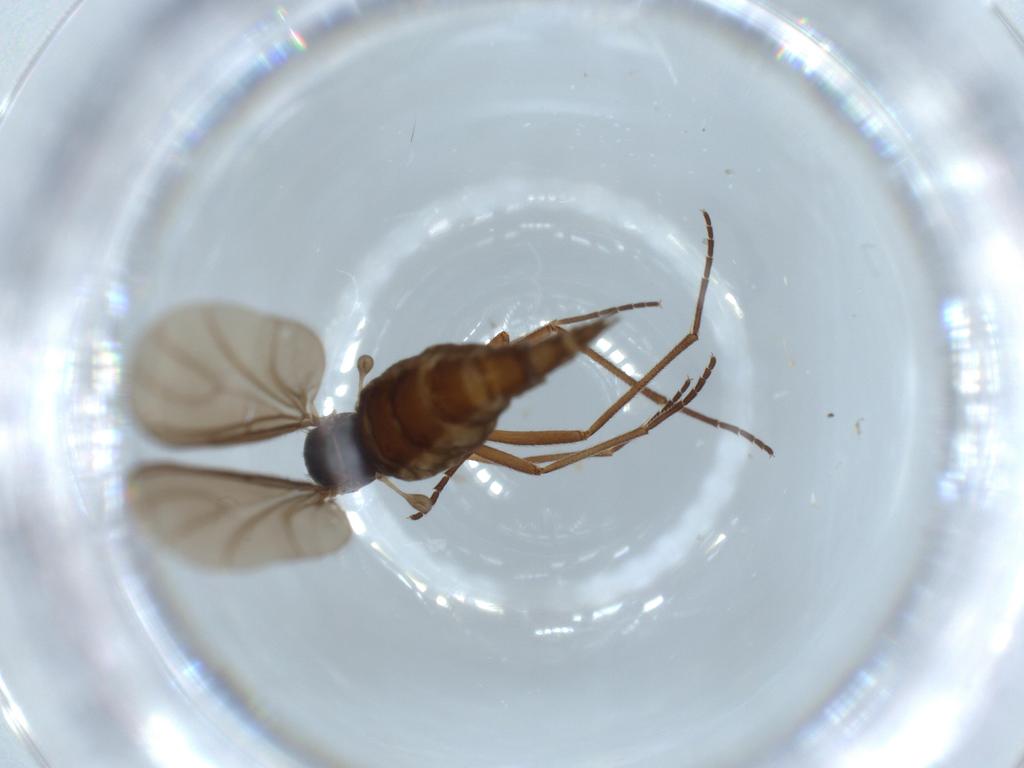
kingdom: Animalia
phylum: Arthropoda
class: Insecta
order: Diptera
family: Sciaridae
